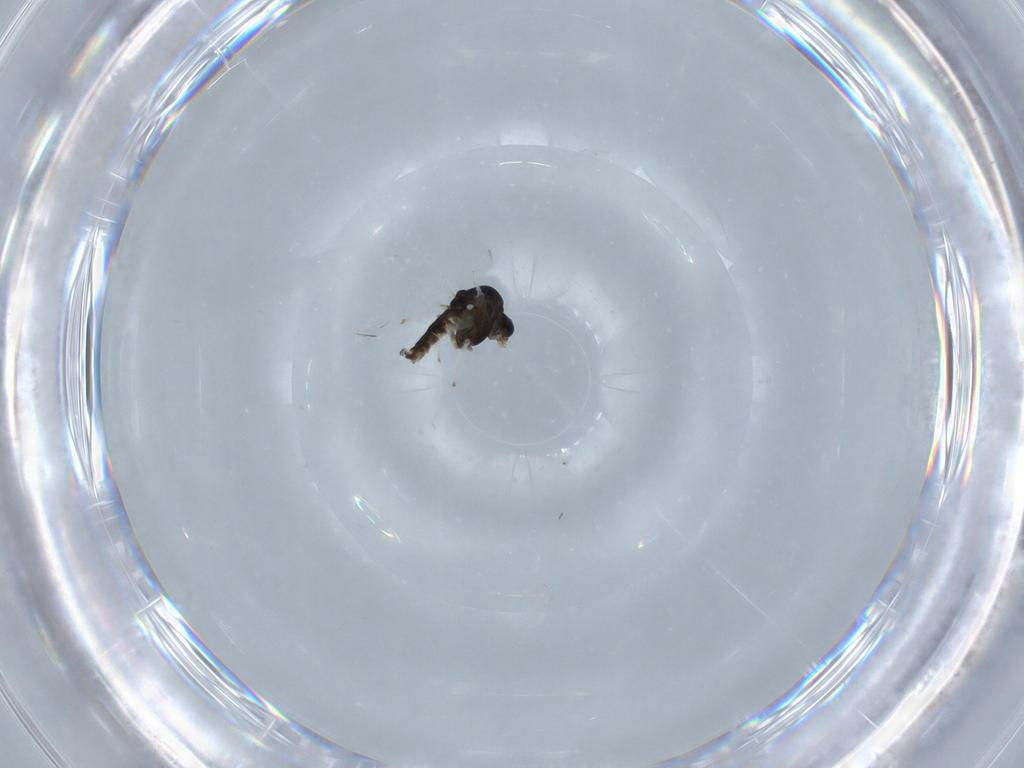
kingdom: Animalia
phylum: Arthropoda
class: Insecta
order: Diptera
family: Chironomidae
